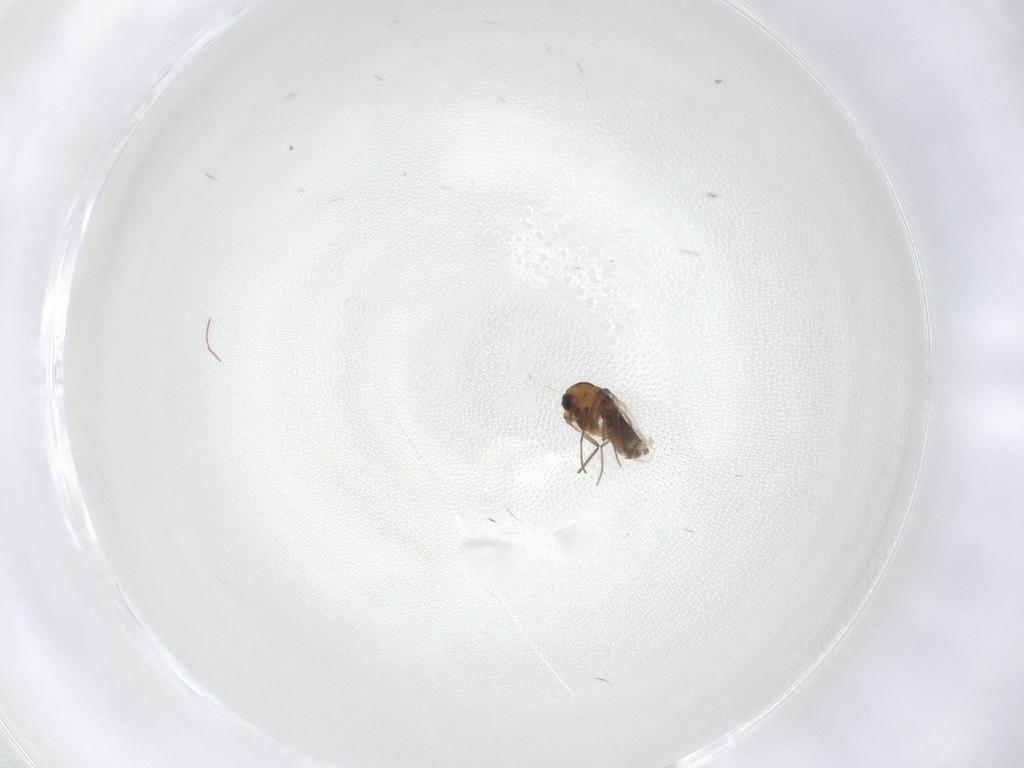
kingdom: Animalia
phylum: Arthropoda
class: Insecta
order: Diptera
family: Chironomidae
